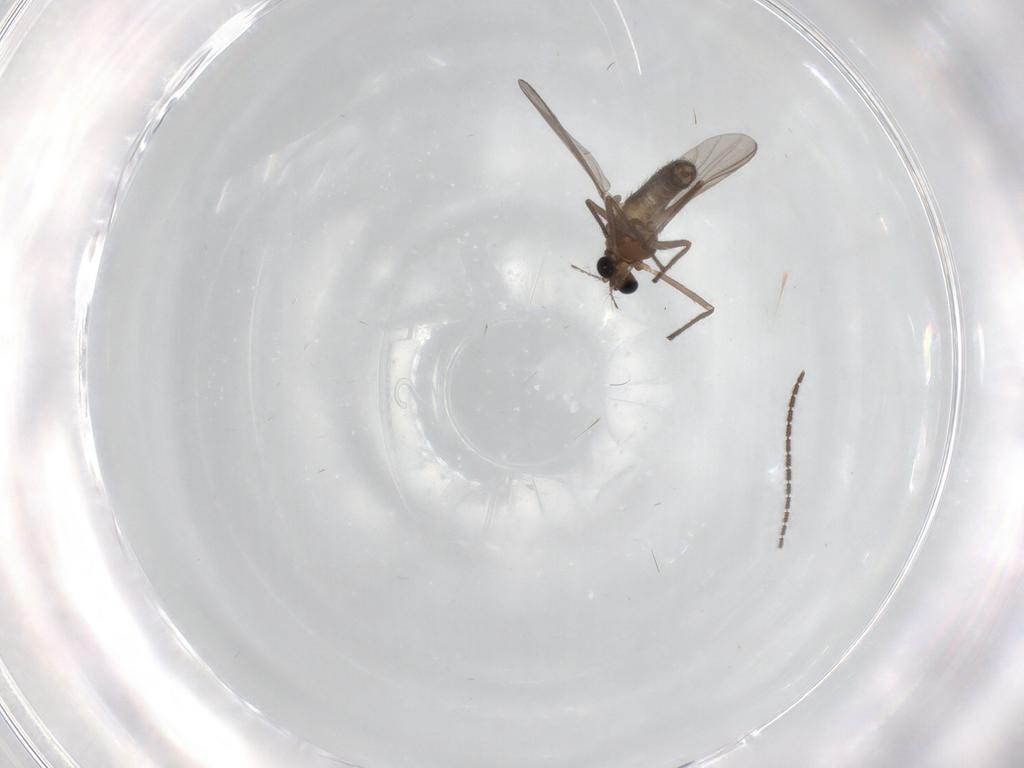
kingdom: Animalia
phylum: Arthropoda
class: Insecta
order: Diptera
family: Chironomidae
